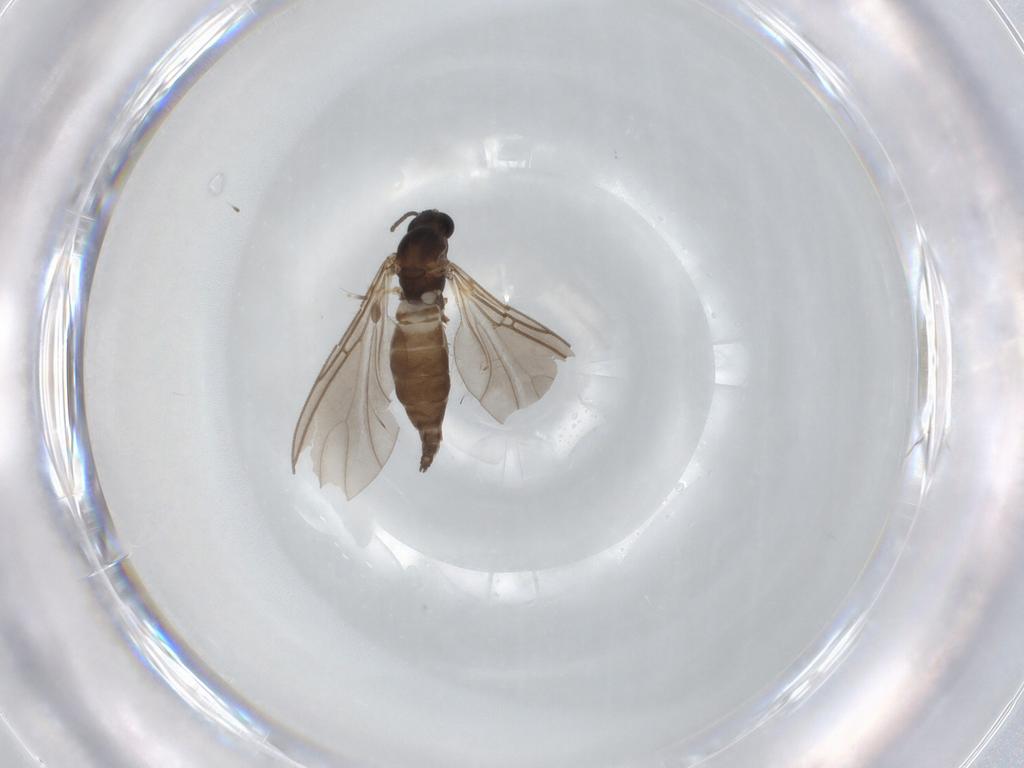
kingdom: Animalia
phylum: Arthropoda
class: Insecta
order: Diptera
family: Sciaridae
